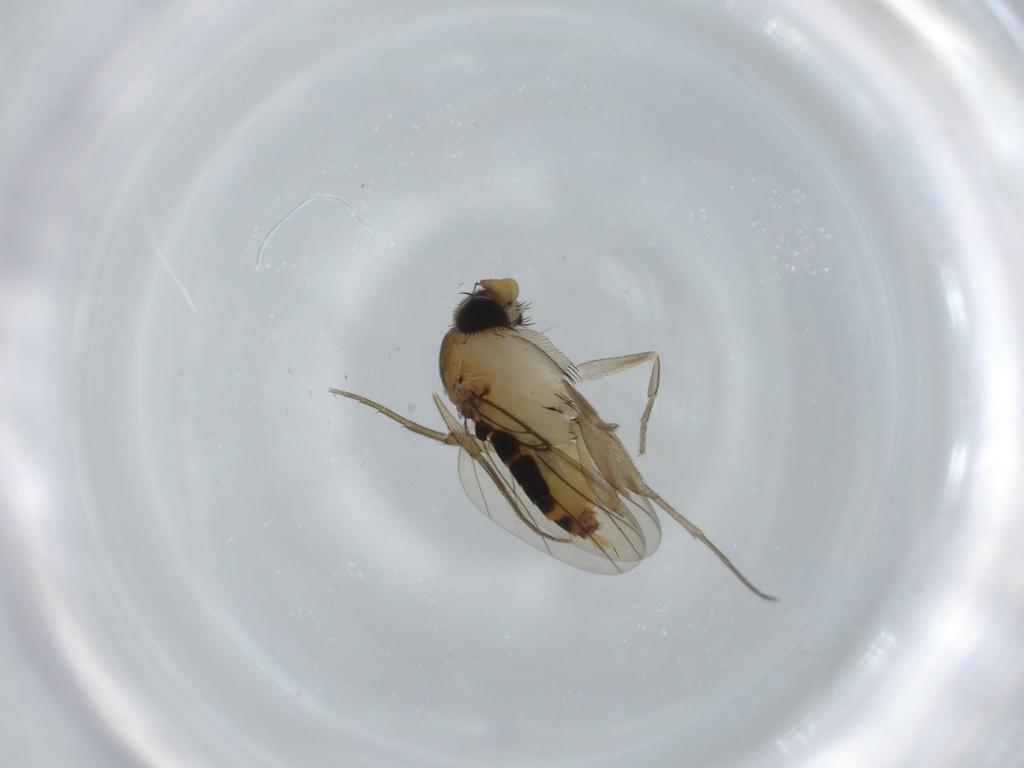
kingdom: Animalia
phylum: Arthropoda
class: Insecta
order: Diptera
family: Phoridae
